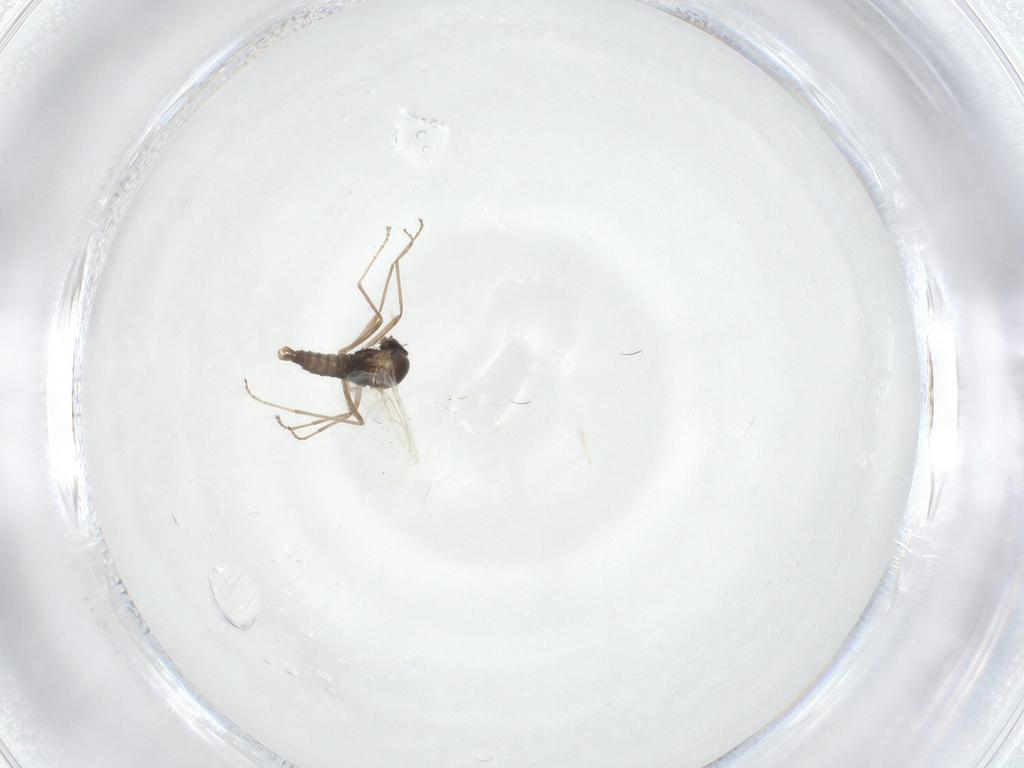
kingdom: Animalia
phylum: Arthropoda
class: Insecta
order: Diptera
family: Cecidomyiidae
